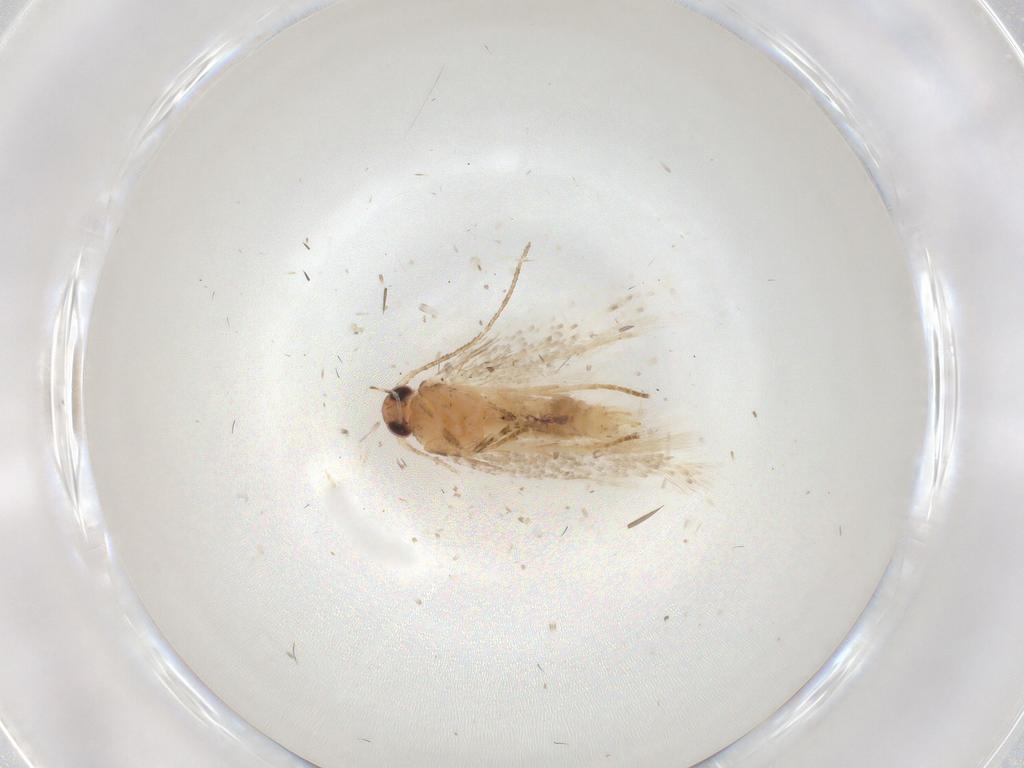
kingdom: Animalia
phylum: Arthropoda
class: Insecta
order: Lepidoptera
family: Gelechiidae
